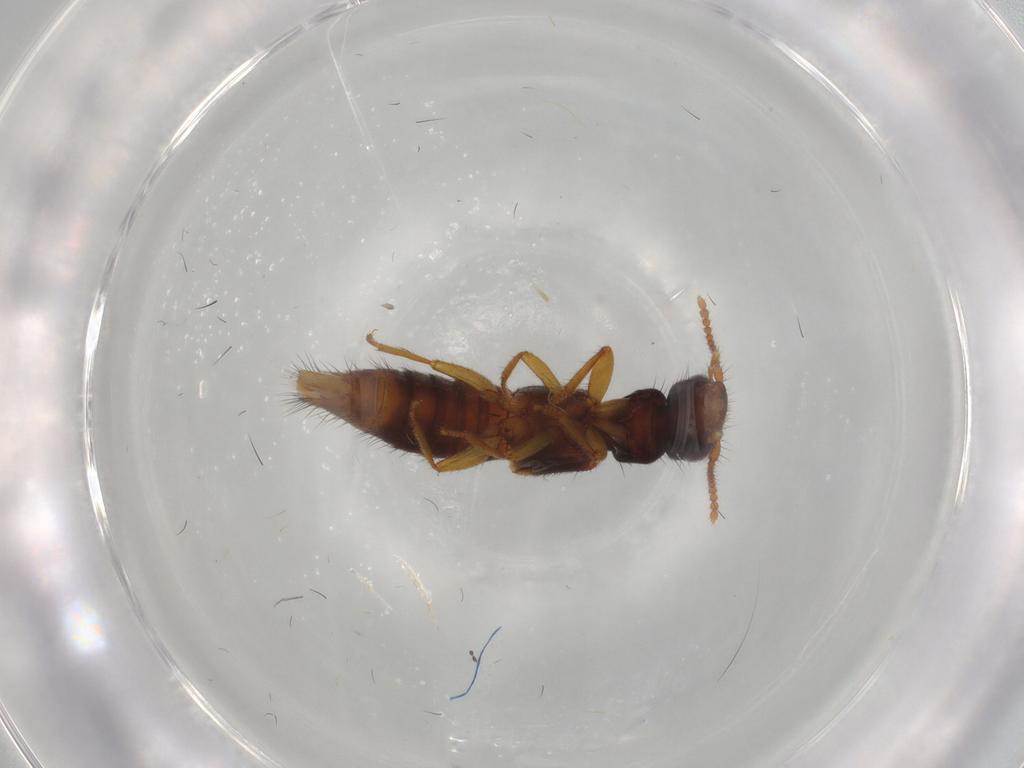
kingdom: Animalia
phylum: Arthropoda
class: Insecta
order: Coleoptera
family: Staphylinidae
